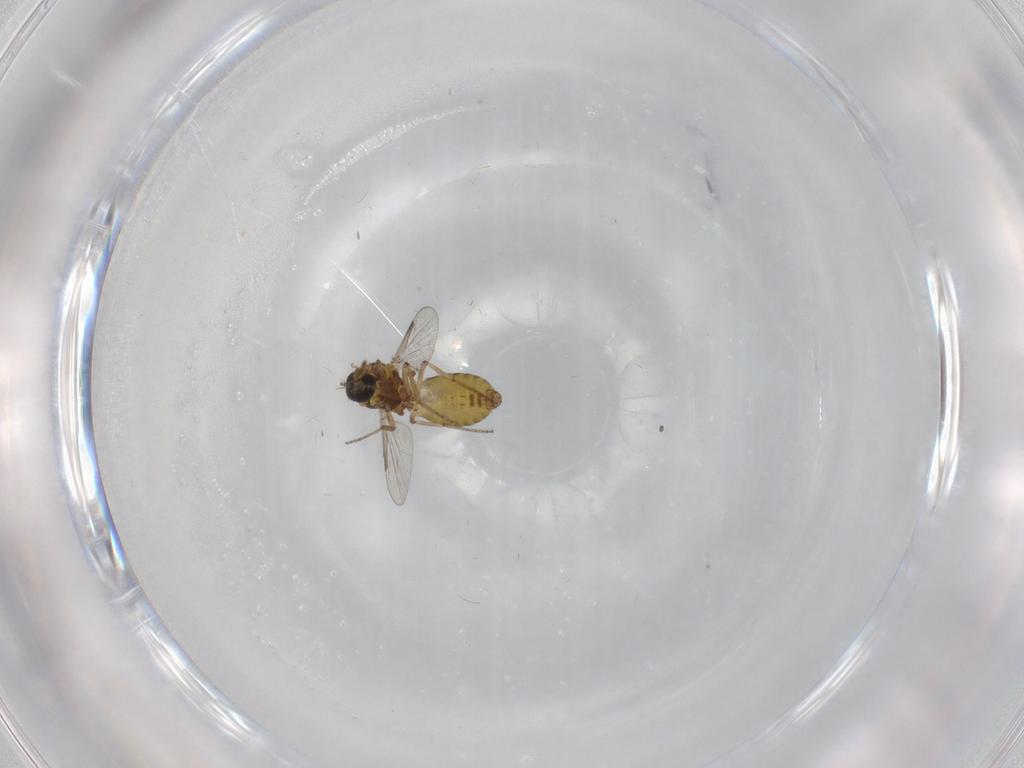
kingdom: Animalia
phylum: Arthropoda
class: Insecta
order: Diptera
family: Ceratopogonidae
